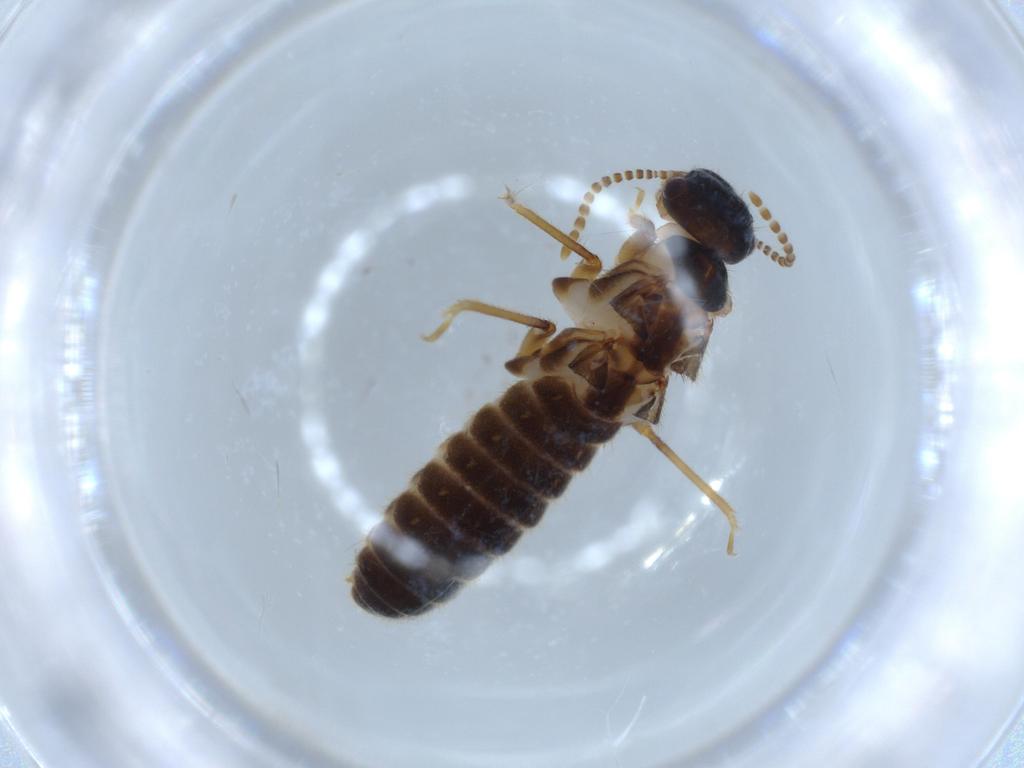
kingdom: Animalia
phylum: Arthropoda
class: Insecta
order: Blattodea
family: Termitidae
